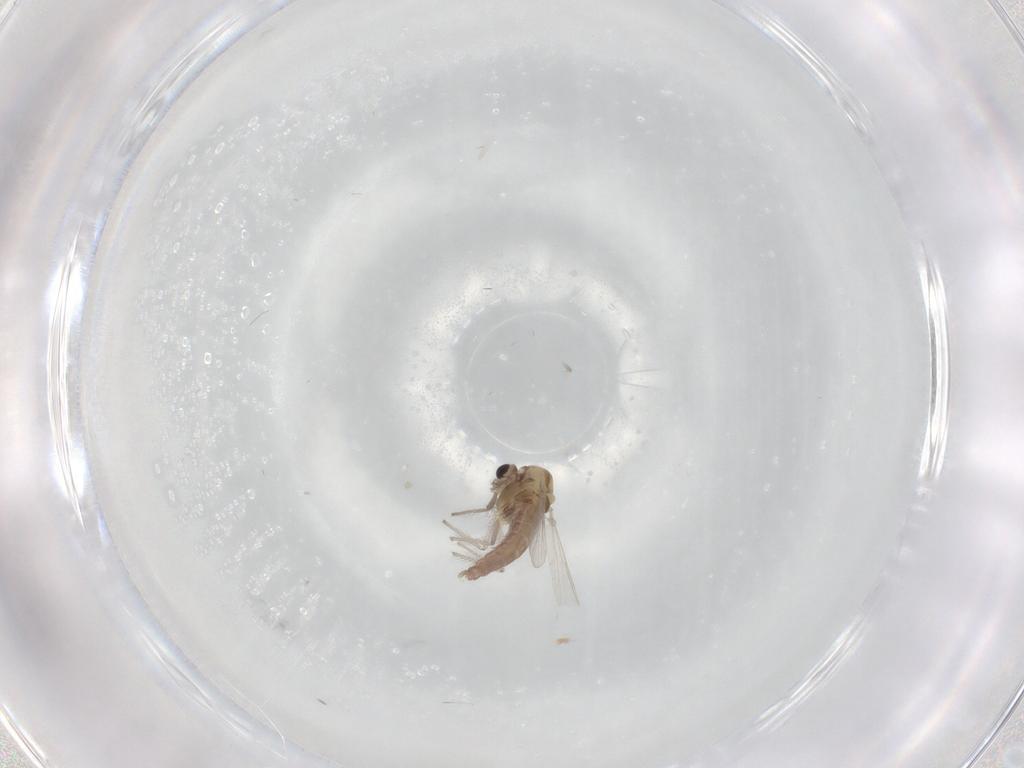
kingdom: Animalia
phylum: Arthropoda
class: Insecta
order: Diptera
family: Chironomidae
